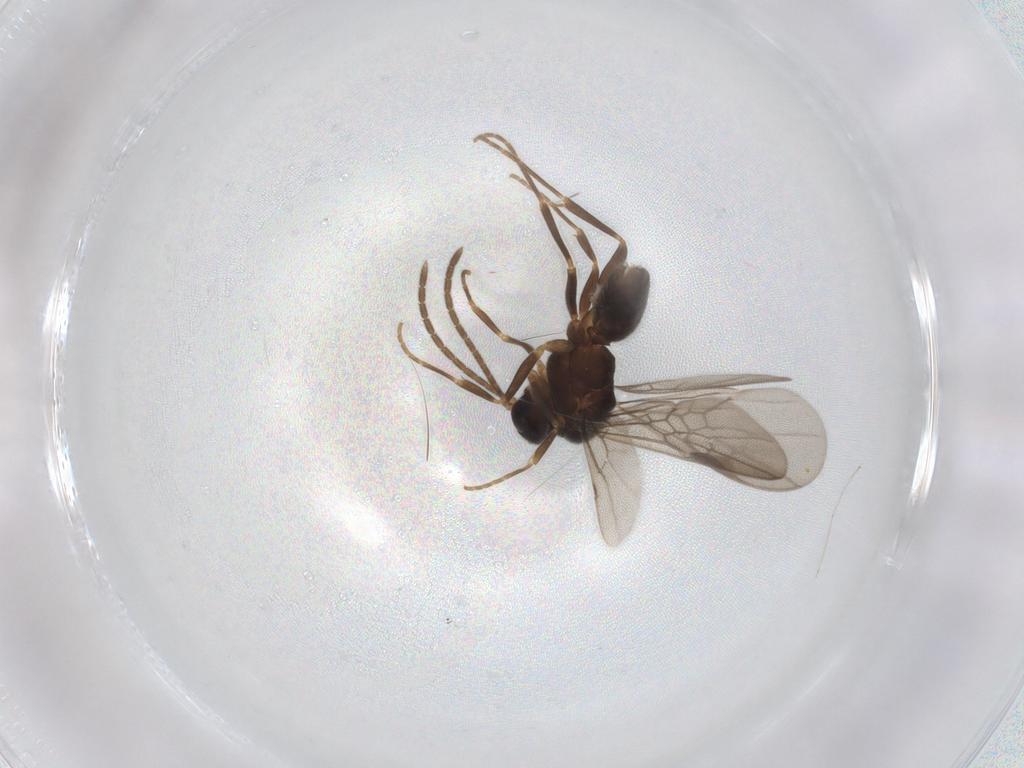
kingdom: Animalia
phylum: Arthropoda
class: Insecta
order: Hymenoptera
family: Formicidae
